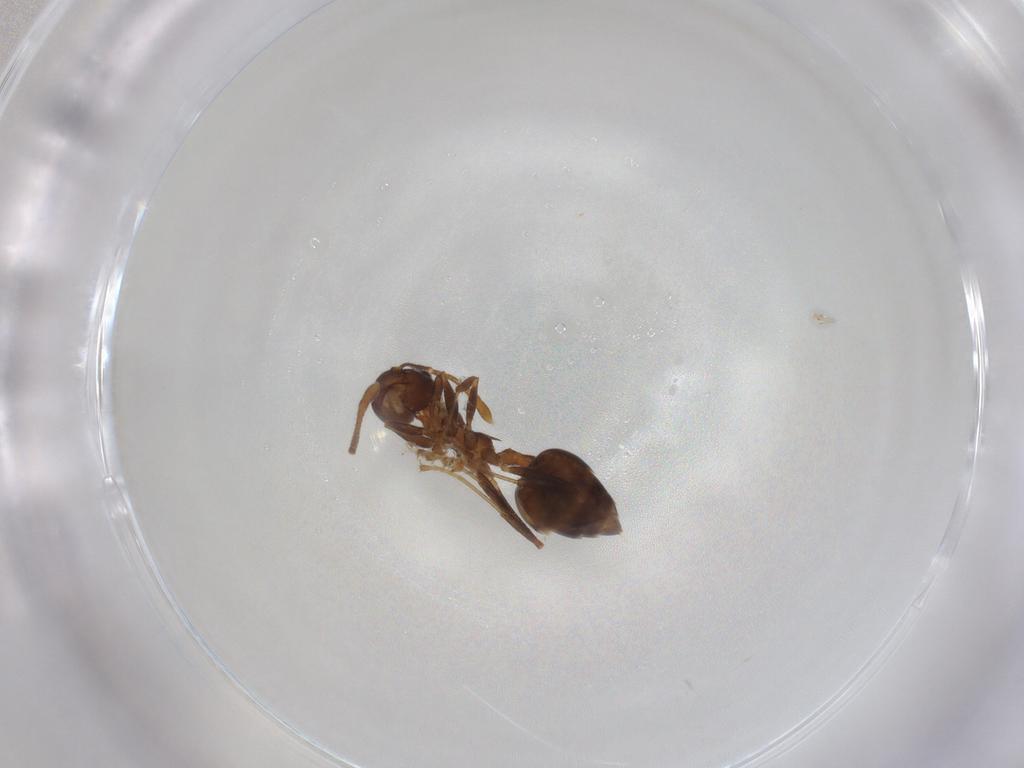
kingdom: Animalia
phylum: Arthropoda
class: Insecta
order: Hymenoptera
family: Formicidae
